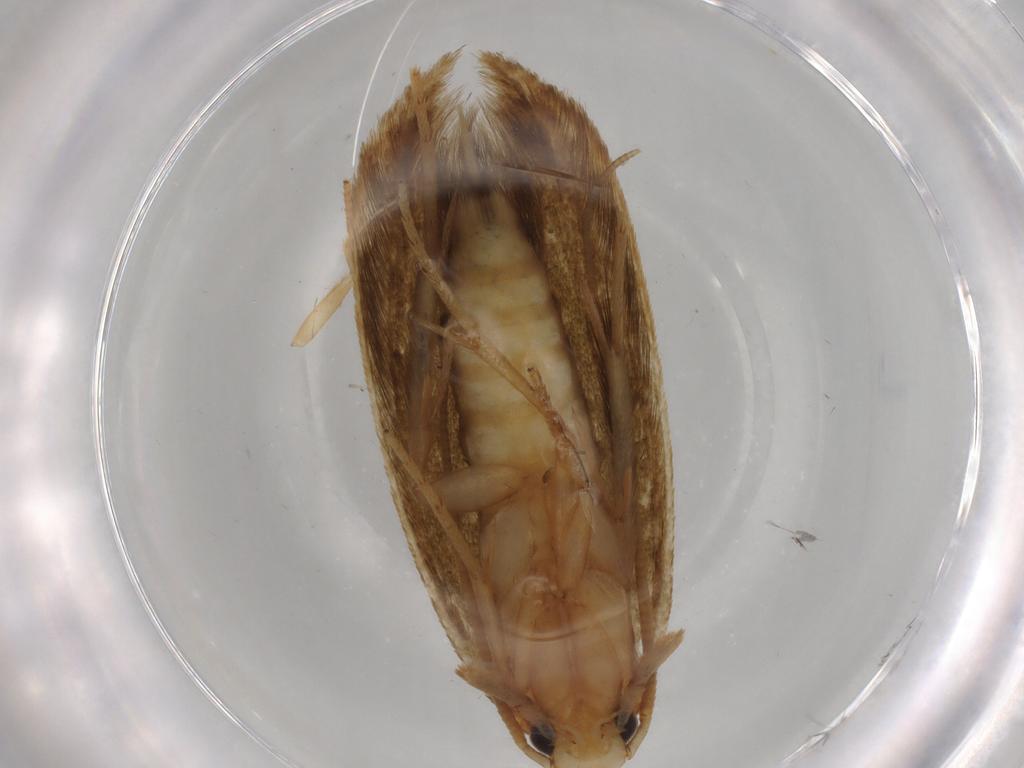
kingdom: Animalia
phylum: Arthropoda
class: Insecta
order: Lepidoptera
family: Tineidae
